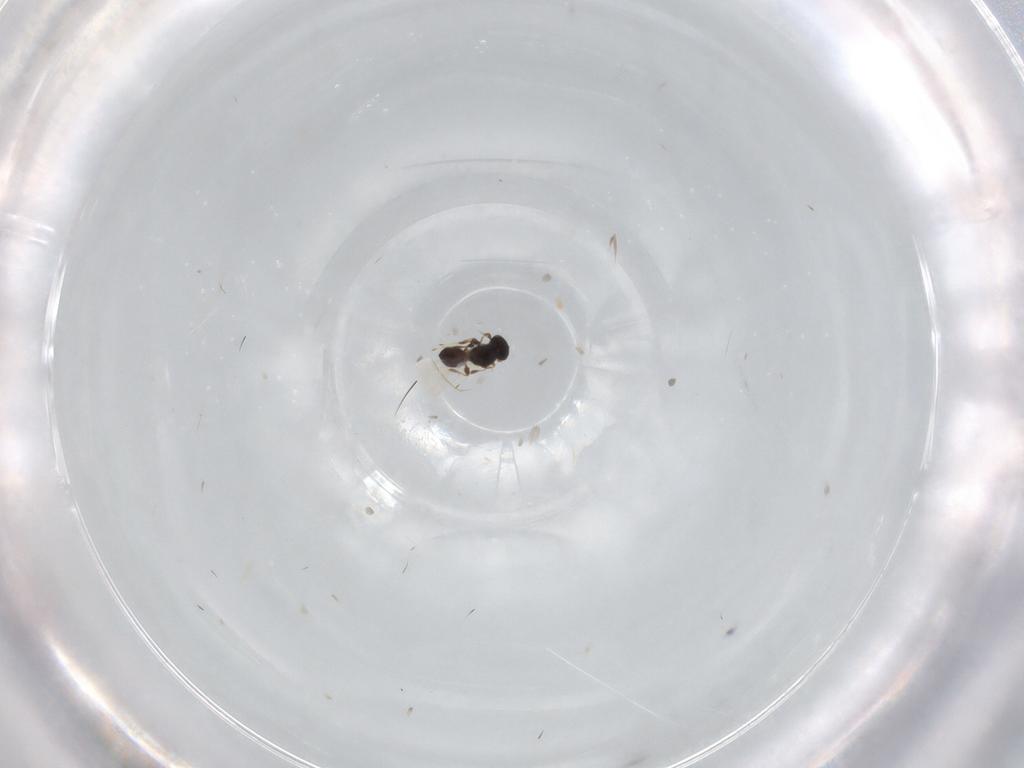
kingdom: Animalia
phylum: Arthropoda
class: Insecta
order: Hymenoptera
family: Platygastridae
